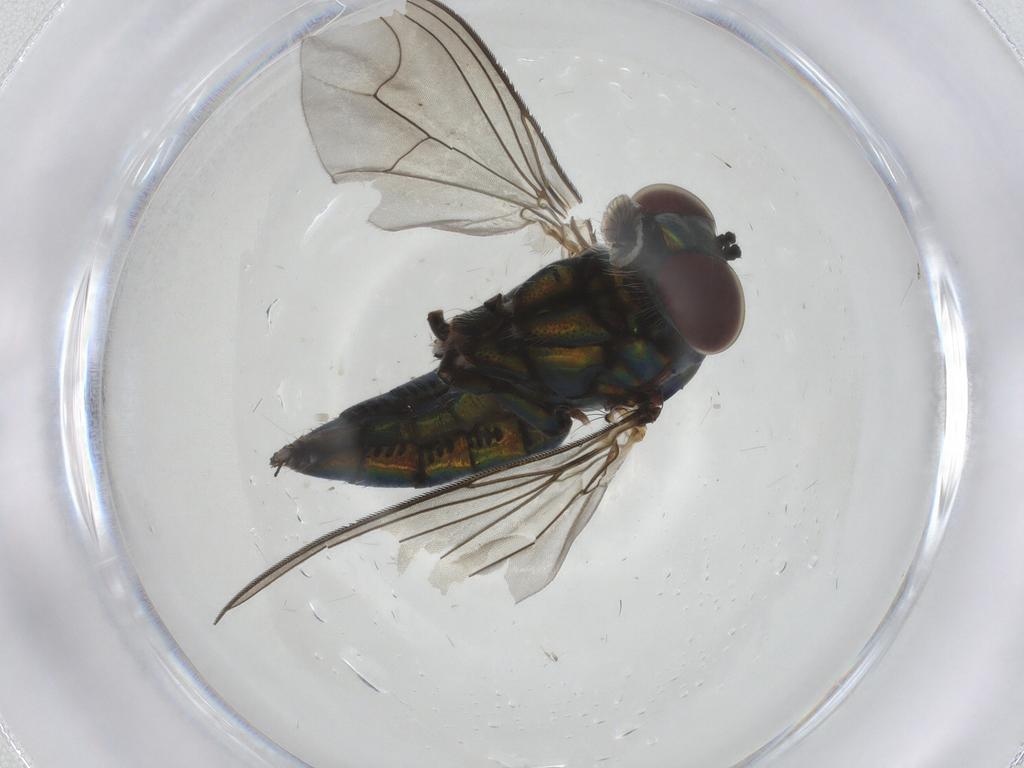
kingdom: Animalia
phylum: Arthropoda
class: Insecta
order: Diptera
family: Dolichopodidae
